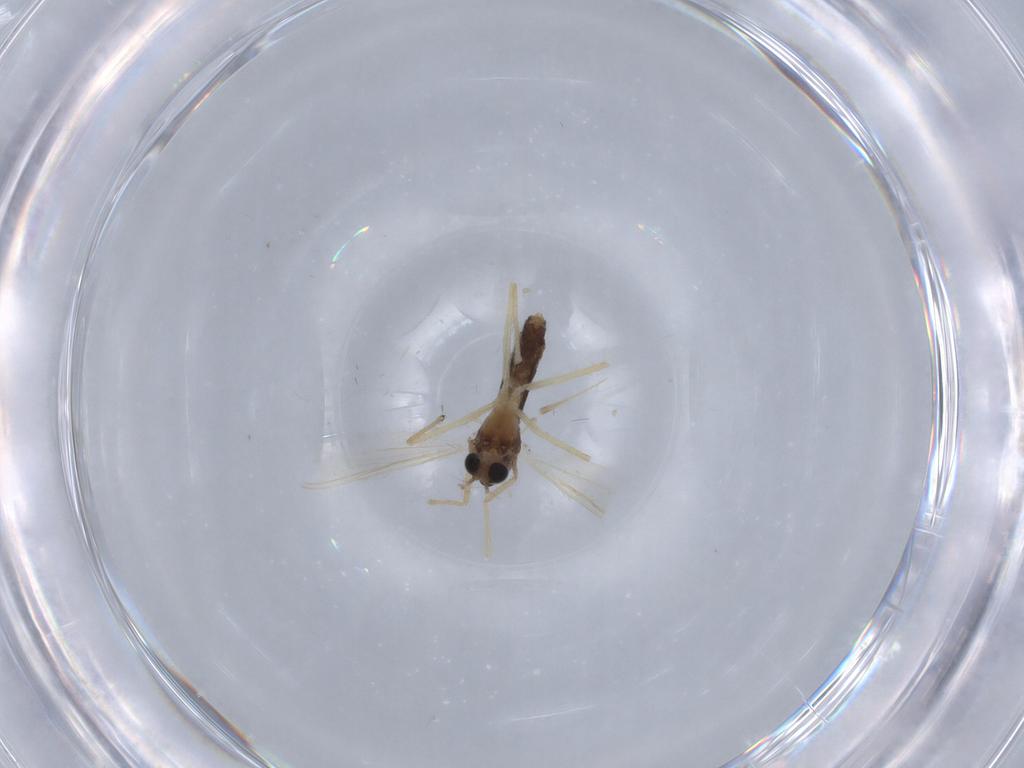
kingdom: Animalia
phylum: Arthropoda
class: Insecta
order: Diptera
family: Chironomidae
